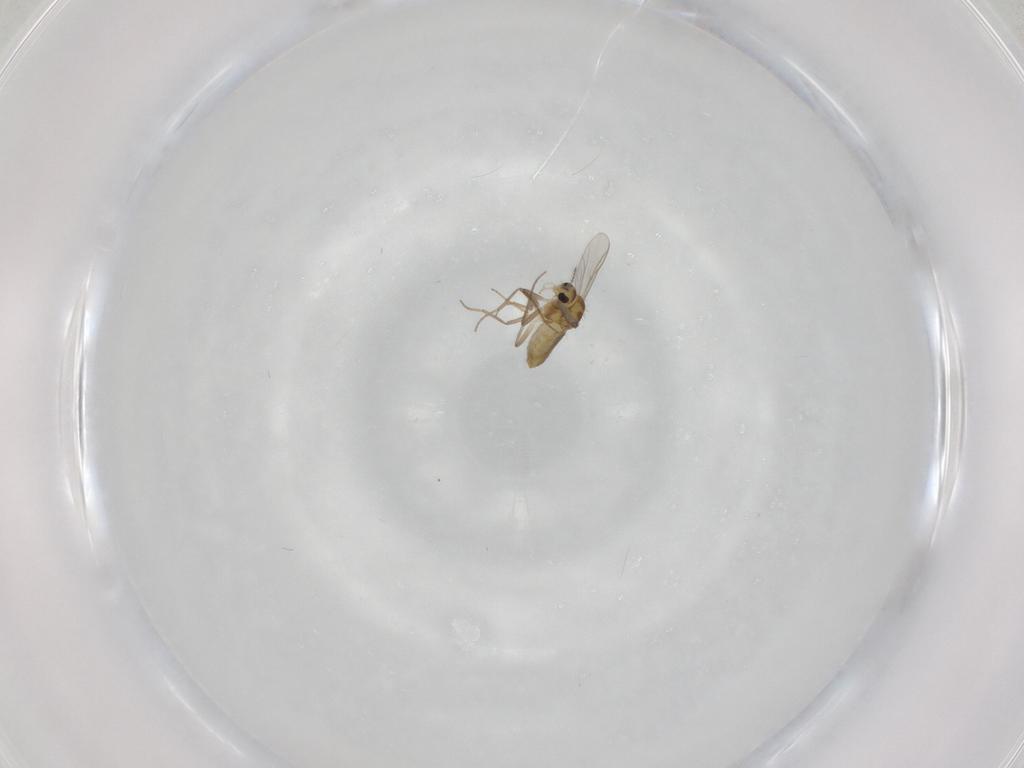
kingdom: Animalia
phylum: Arthropoda
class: Insecta
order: Diptera
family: Chironomidae
